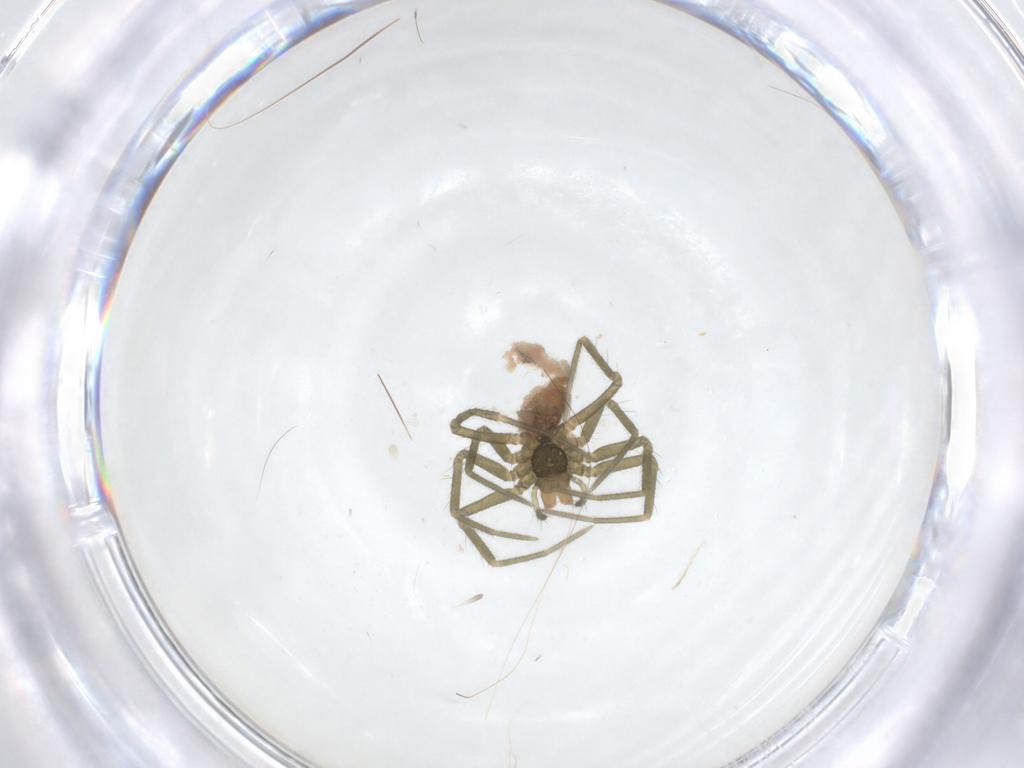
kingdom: Animalia
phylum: Arthropoda
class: Arachnida
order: Araneae
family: Linyphiidae
